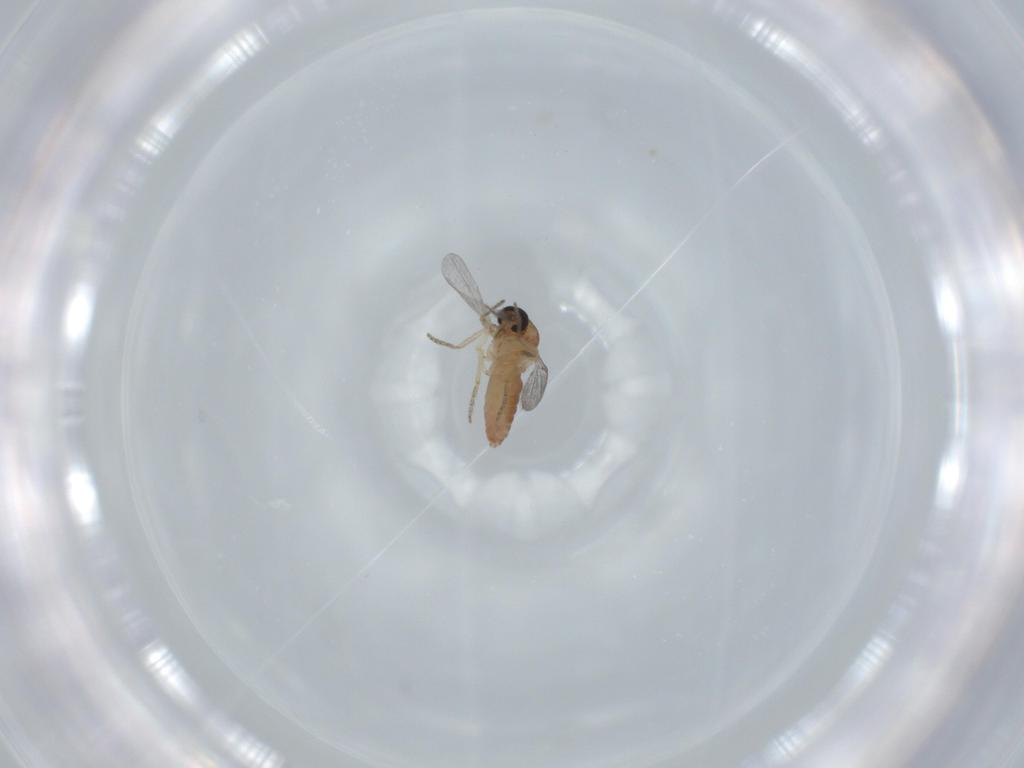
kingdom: Animalia
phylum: Arthropoda
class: Insecta
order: Diptera
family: Ceratopogonidae
